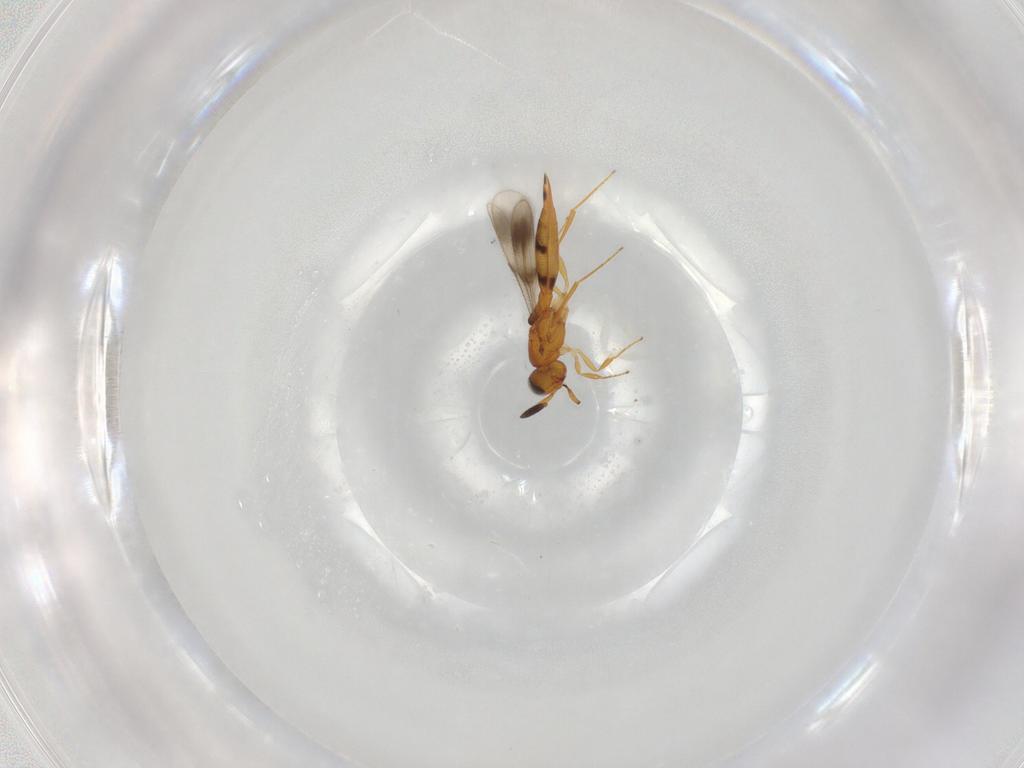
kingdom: Animalia
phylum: Arthropoda
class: Insecta
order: Hymenoptera
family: Scelionidae
